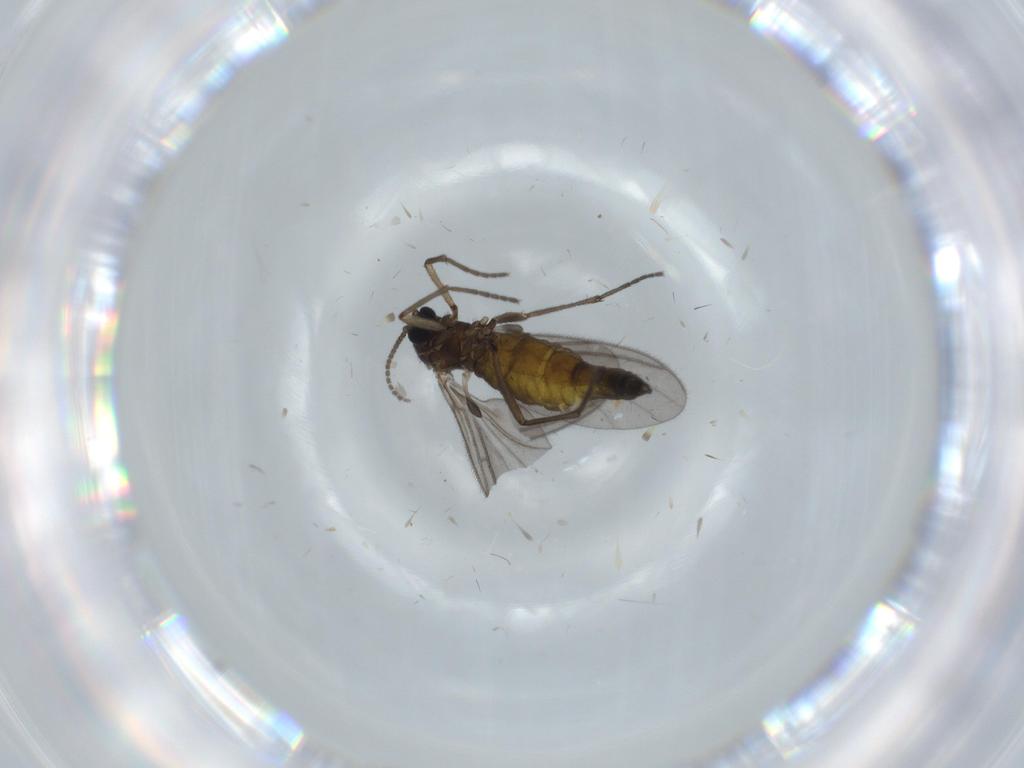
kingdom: Animalia
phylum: Arthropoda
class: Insecta
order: Diptera
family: Sciaridae
